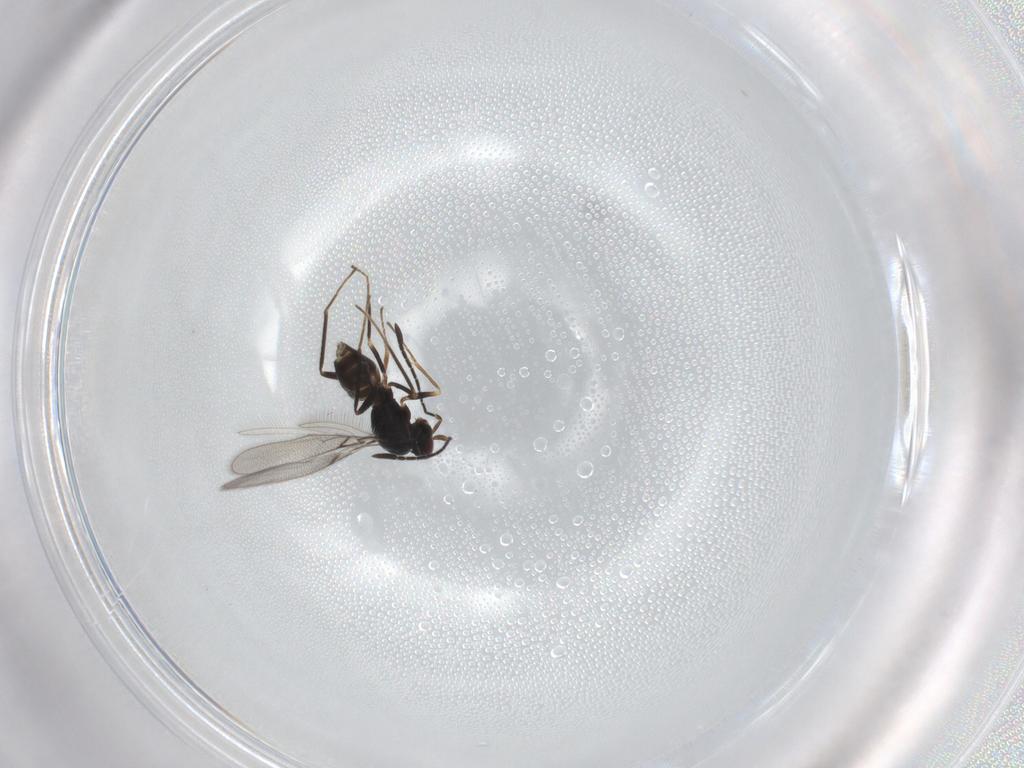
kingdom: Animalia
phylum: Arthropoda
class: Insecta
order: Hymenoptera
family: Mymaridae
